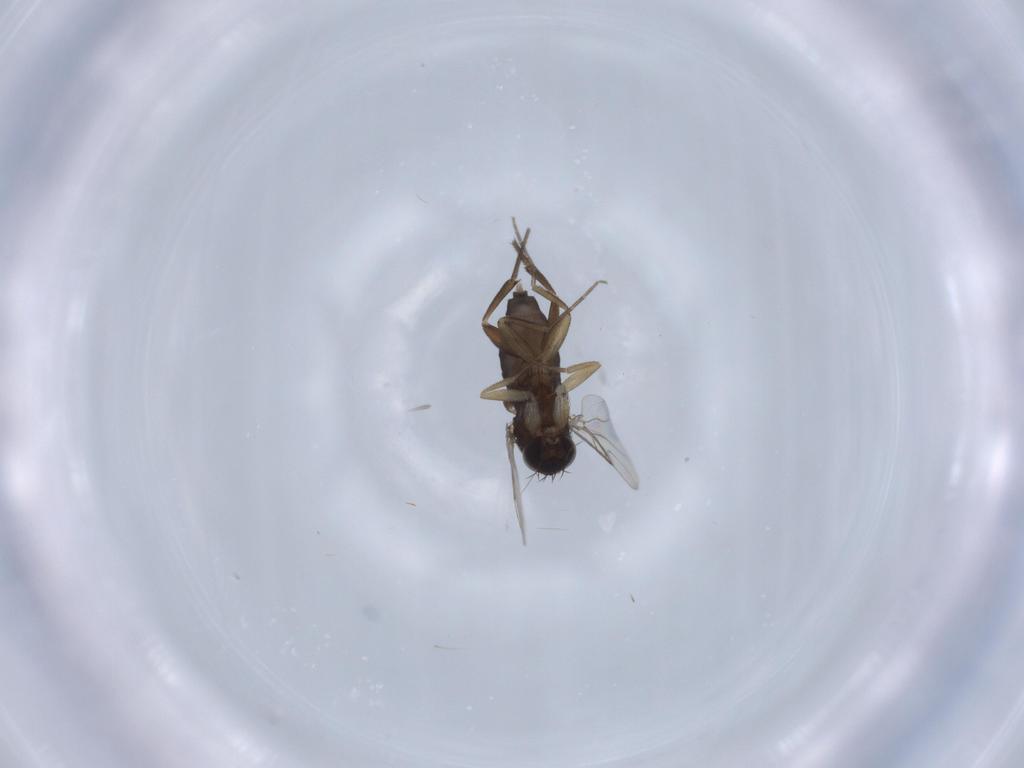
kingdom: Animalia
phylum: Arthropoda
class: Insecta
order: Diptera
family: Phoridae
